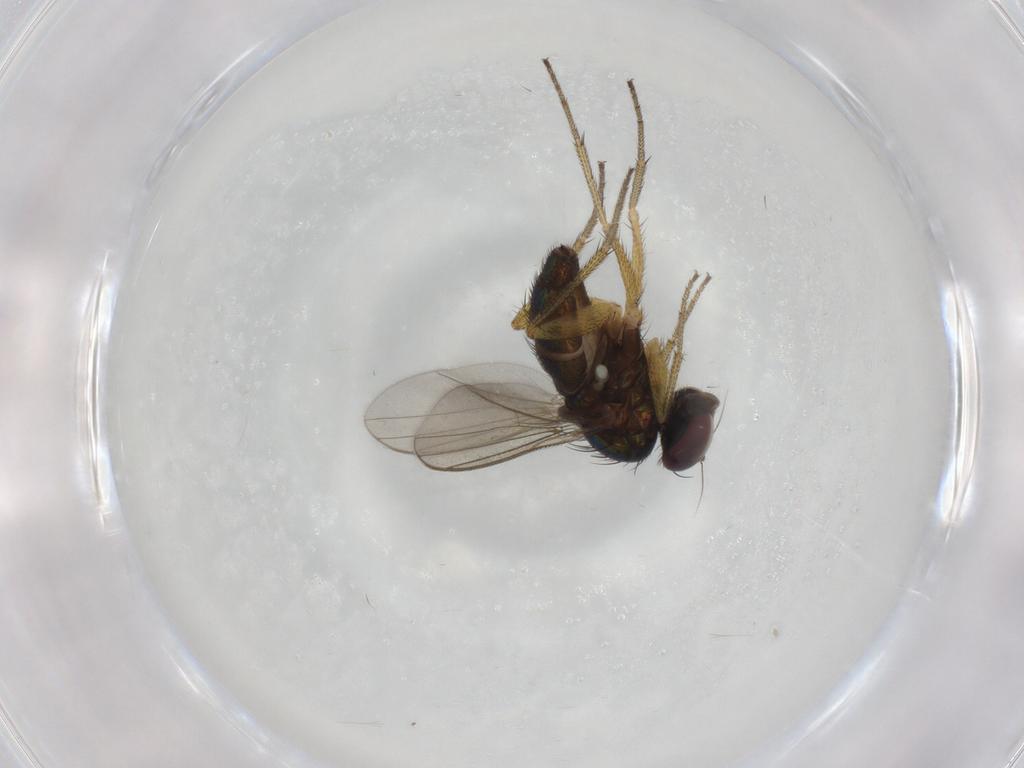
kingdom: Animalia
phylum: Arthropoda
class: Insecta
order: Diptera
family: Dolichopodidae
